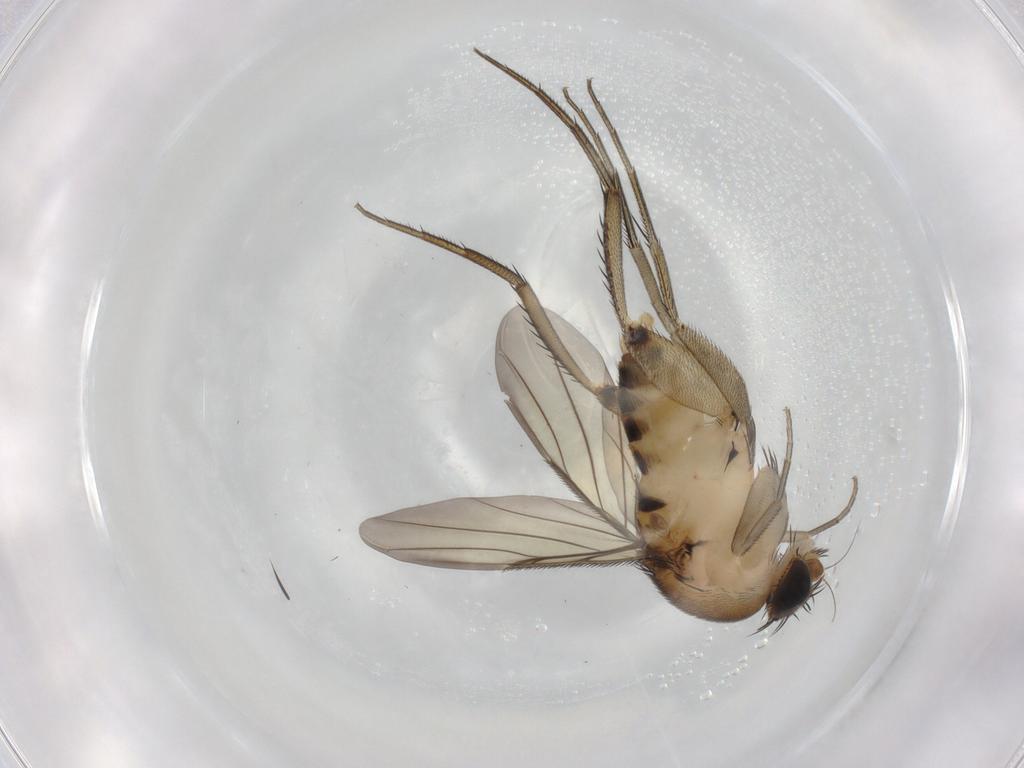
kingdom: Animalia
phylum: Arthropoda
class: Insecta
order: Diptera
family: Phoridae
